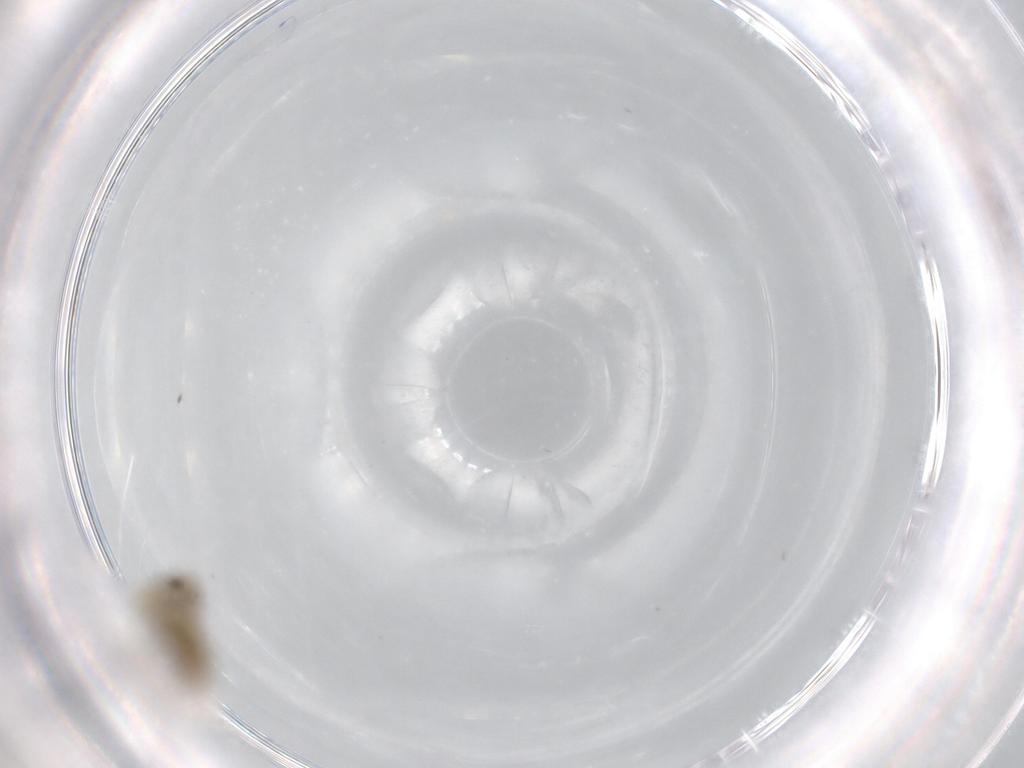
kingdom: Animalia
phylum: Arthropoda
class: Insecta
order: Hemiptera
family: Aleyrodidae
